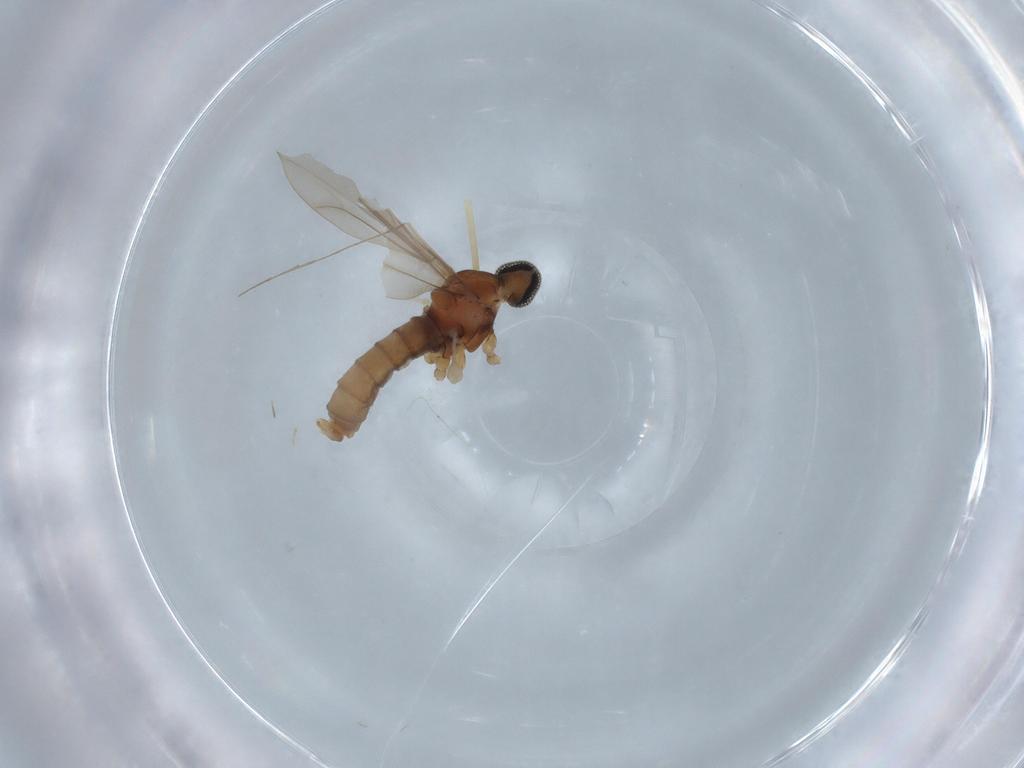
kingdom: Animalia
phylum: Arthropoda
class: Insecta
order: Diptera
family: Cecidomyiidae
